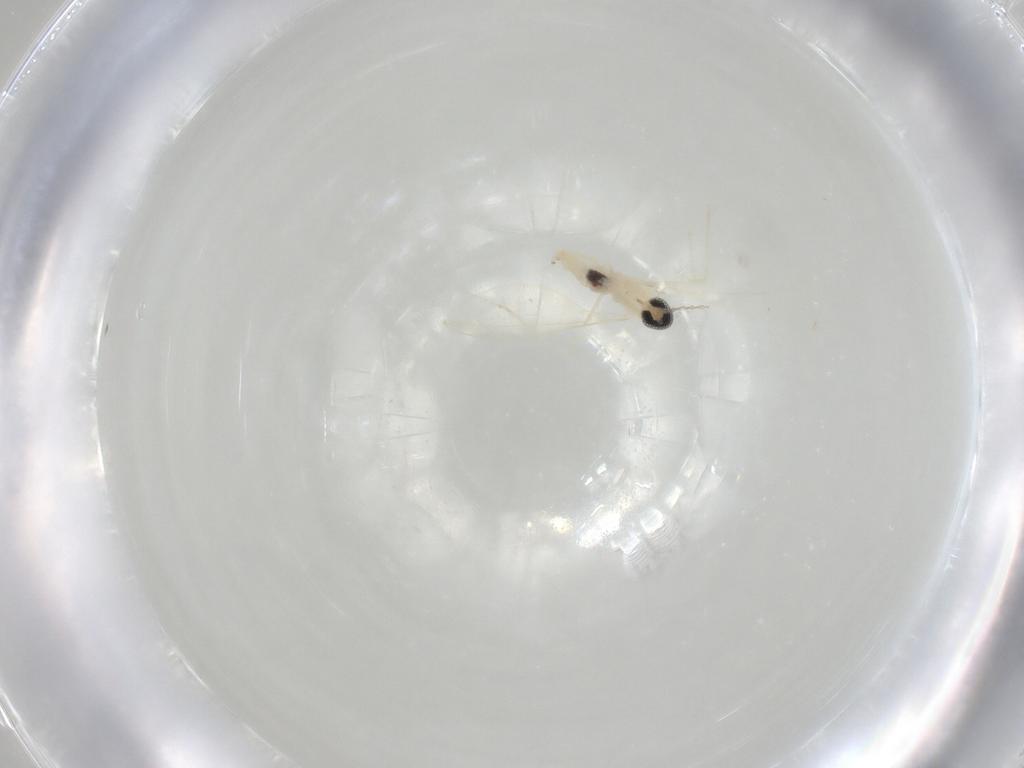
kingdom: Animalia
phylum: Arthropoda
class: Insecta
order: Diptera
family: Cecidomyiidae
